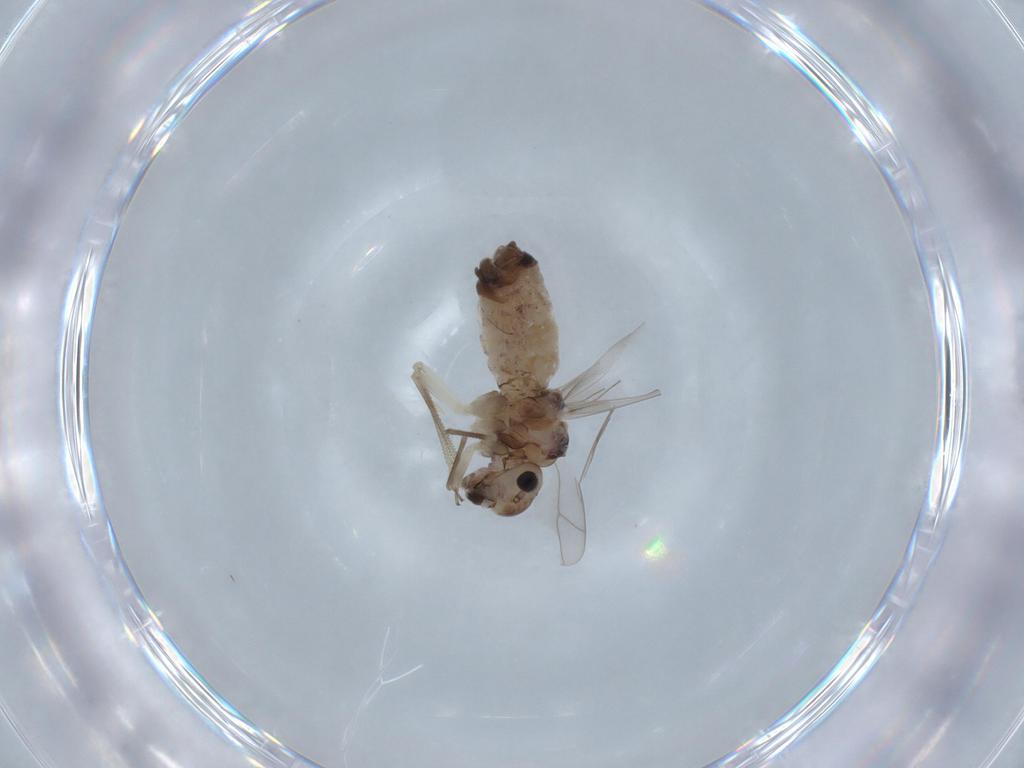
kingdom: Animalia
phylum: Arthropoda
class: Insecta
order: Psocodea
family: Peripsocidae
